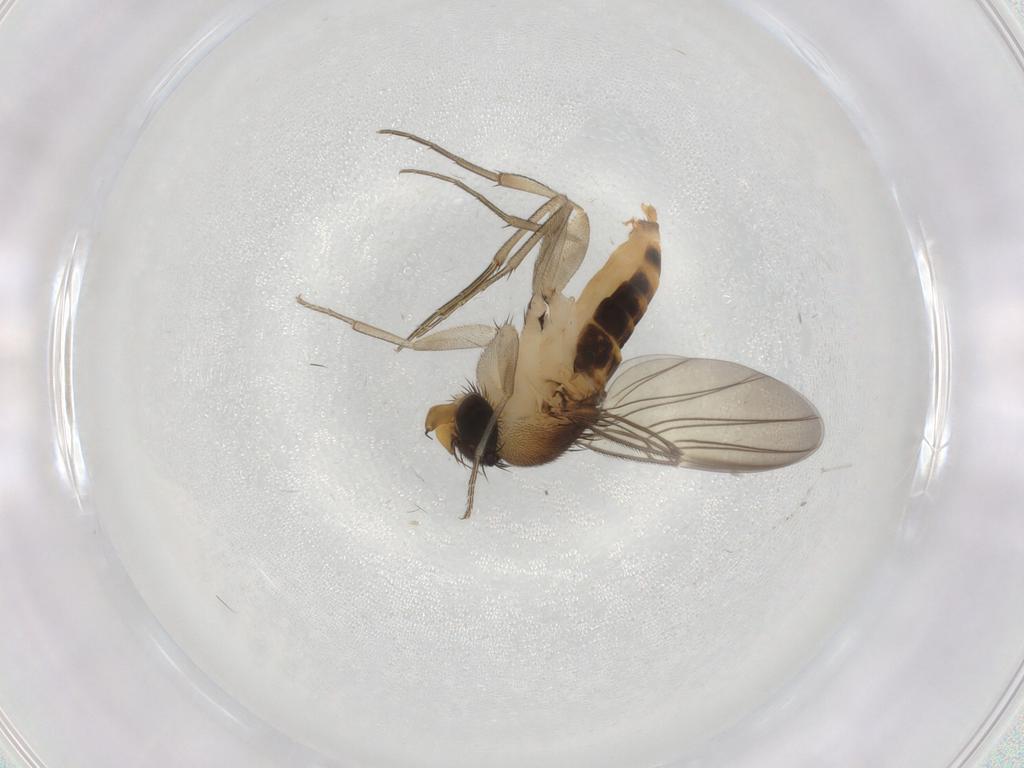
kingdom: Animalia
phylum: Arthropoda
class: Insecta
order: Diptera
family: Phoridae
